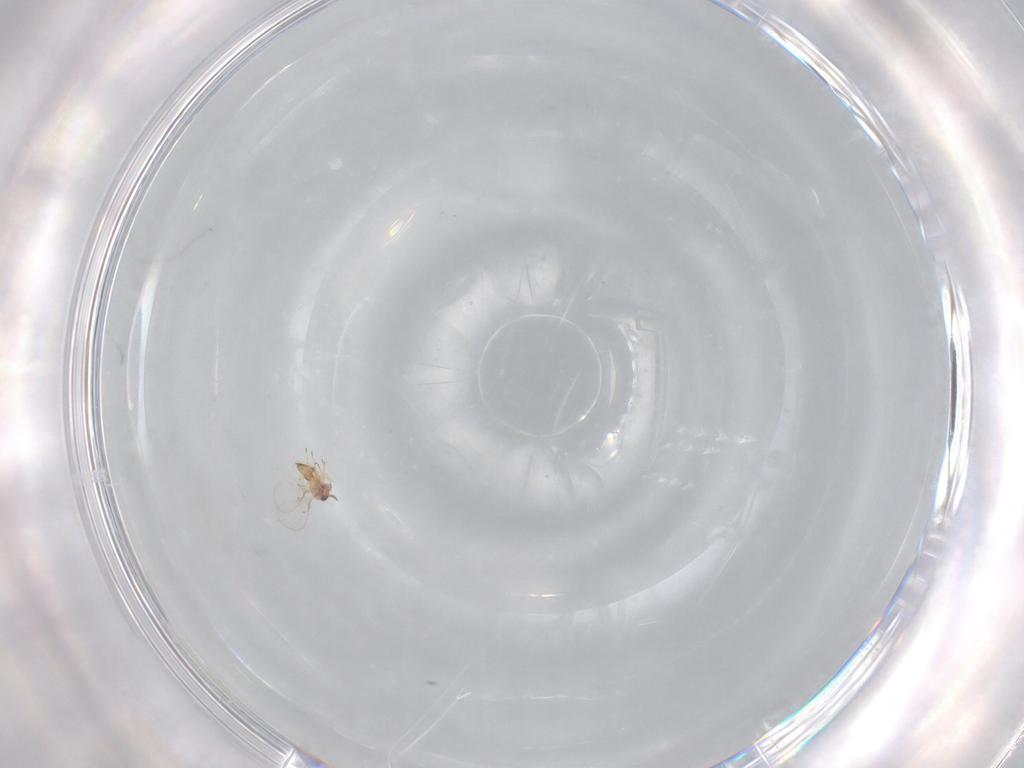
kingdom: Animalia
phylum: Arthropoda
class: Insecta
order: Hymenoptera
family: Trichogrammatidae
